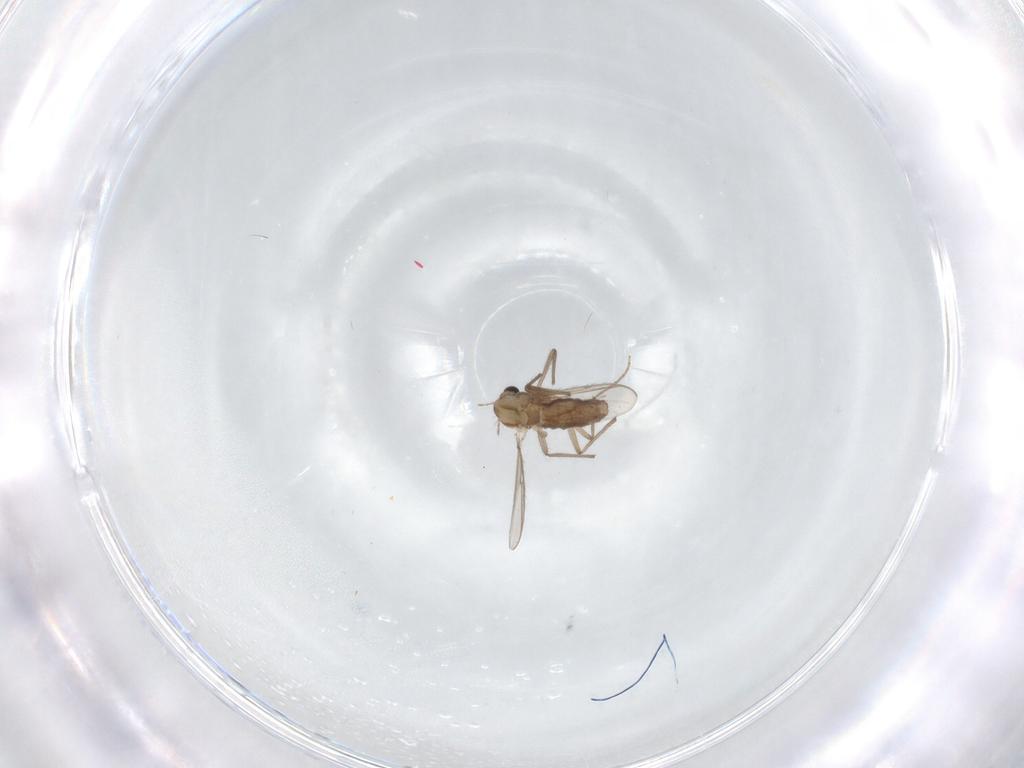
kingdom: Animalia
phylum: Arthropoda
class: Insecta
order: Diptera
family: Chironomidae
